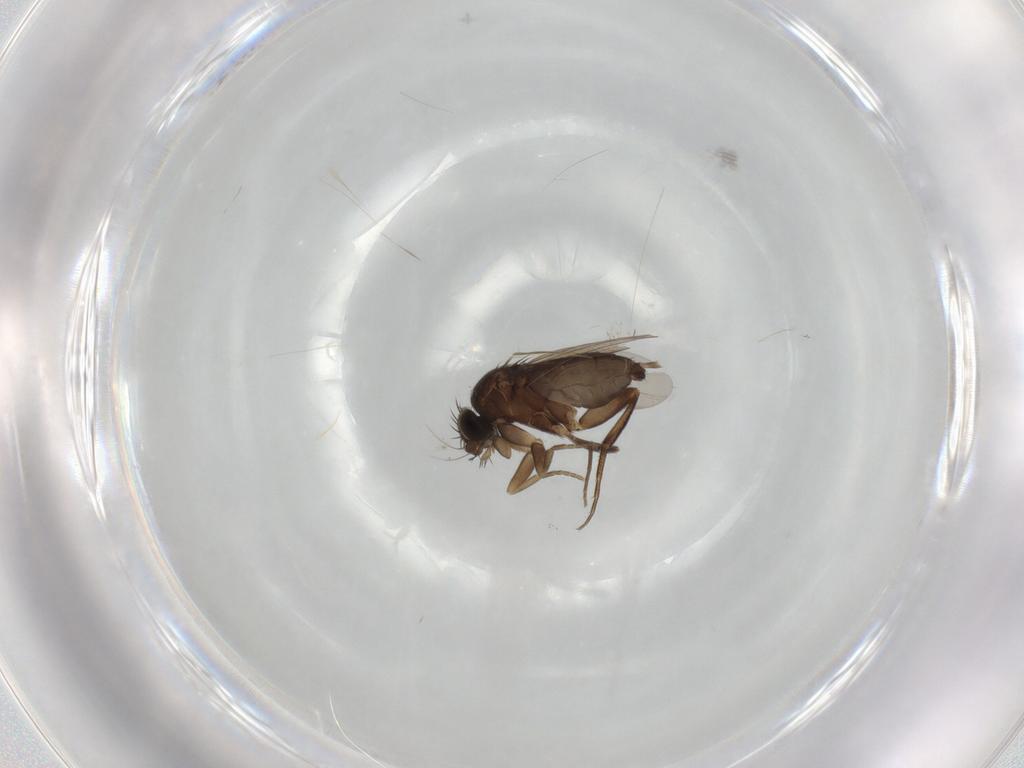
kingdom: Animalia
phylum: Arthropoda
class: Insecta
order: Diptera
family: Phoridae
